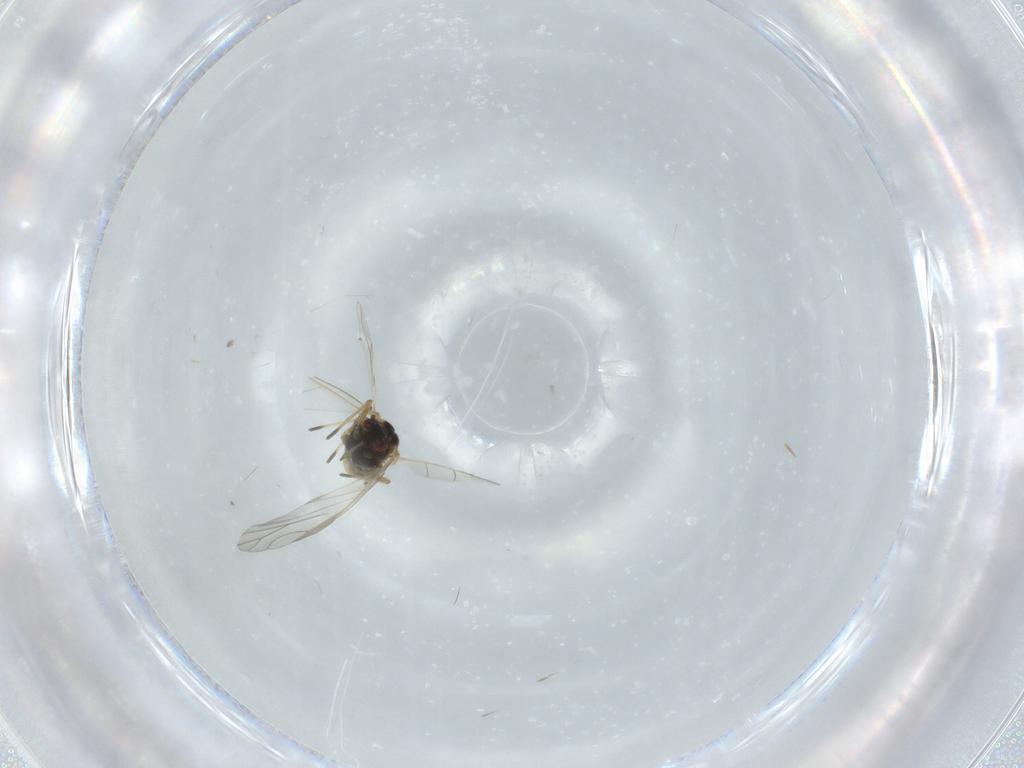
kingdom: Animalia
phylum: Arthropoda
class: Insecta
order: Hemiptera
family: Aphididae
